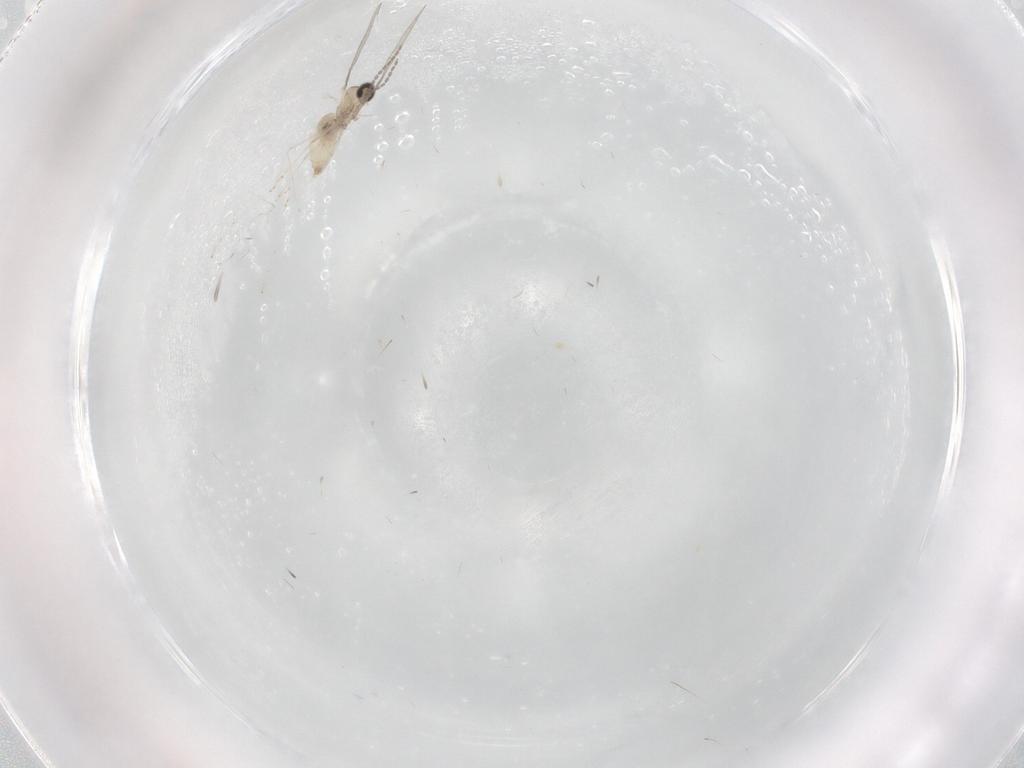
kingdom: Animalia
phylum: Arthropoda
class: Insecta
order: Diptera
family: Cecidomyiidae
